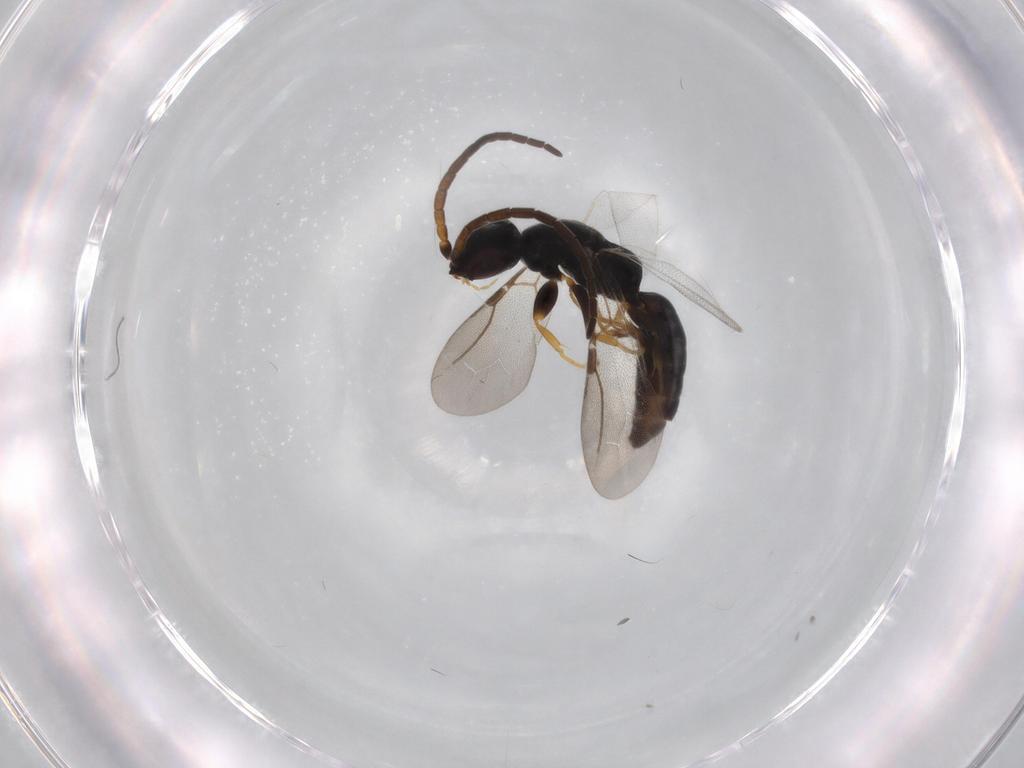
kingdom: Animalia
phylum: Arthropoda
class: Insecta
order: Hymenoptera
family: Bethylidae
